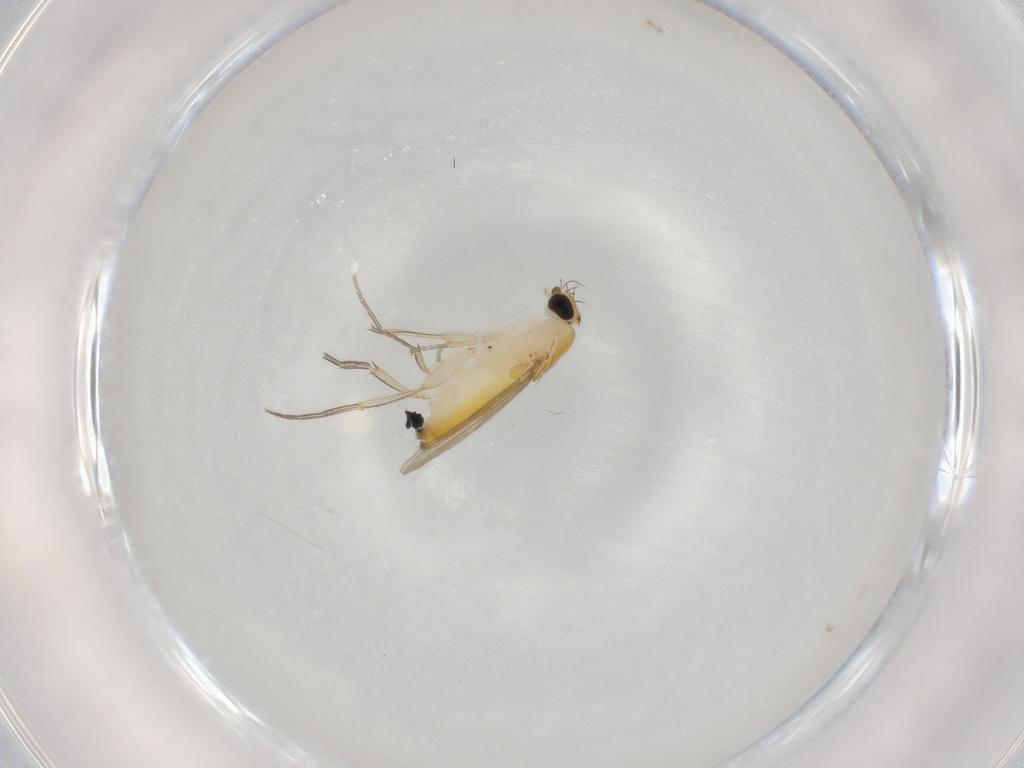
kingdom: Animalia
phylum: Arthropoda
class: Insecta
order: Diptera
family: Phoridae
